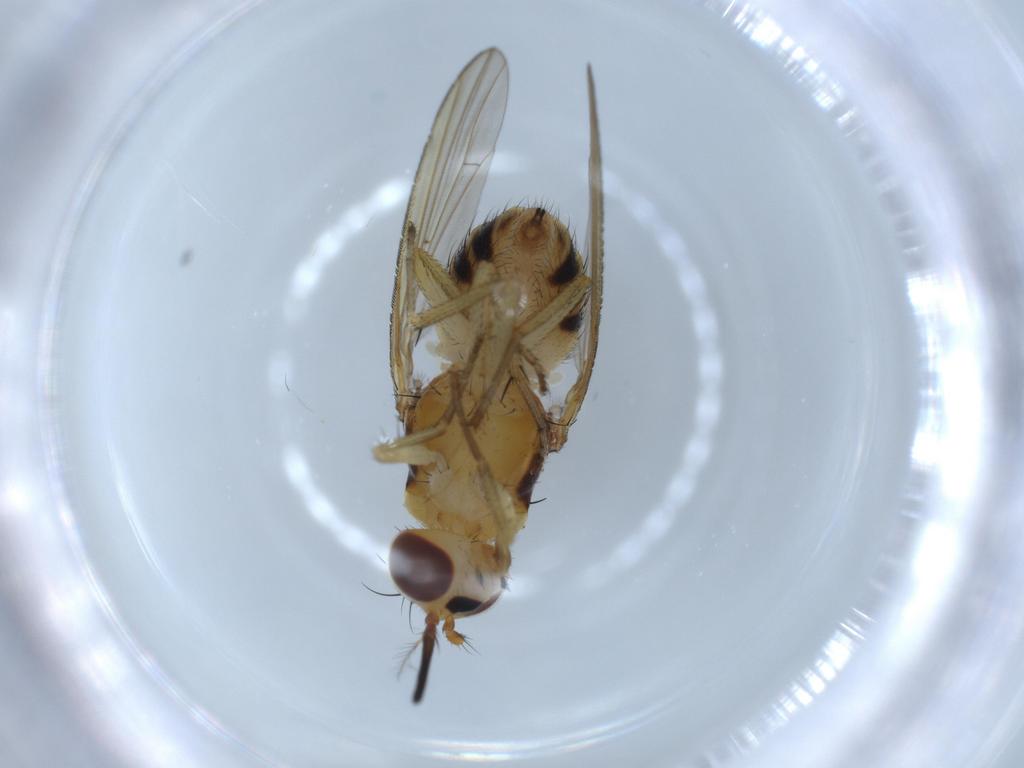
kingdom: Animalia
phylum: Arthropoda
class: Insecta
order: Diptera
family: Lauxaniidae
